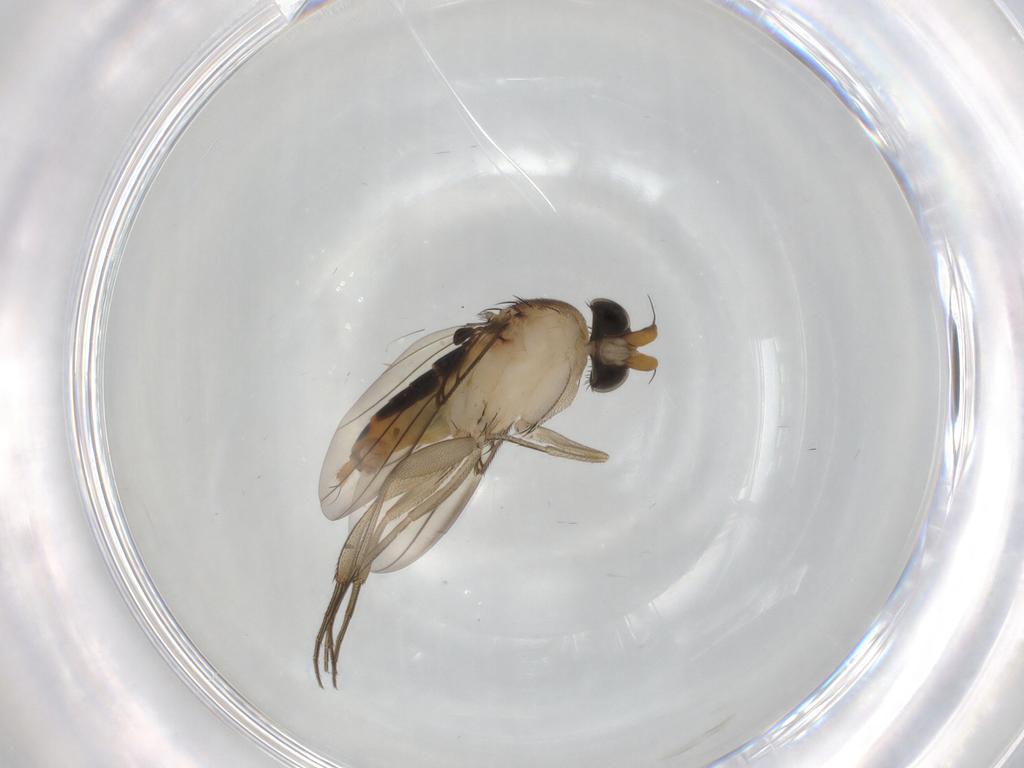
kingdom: Animalia
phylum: Arthropoda
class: Insecta
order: Diptera
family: Phoridae
